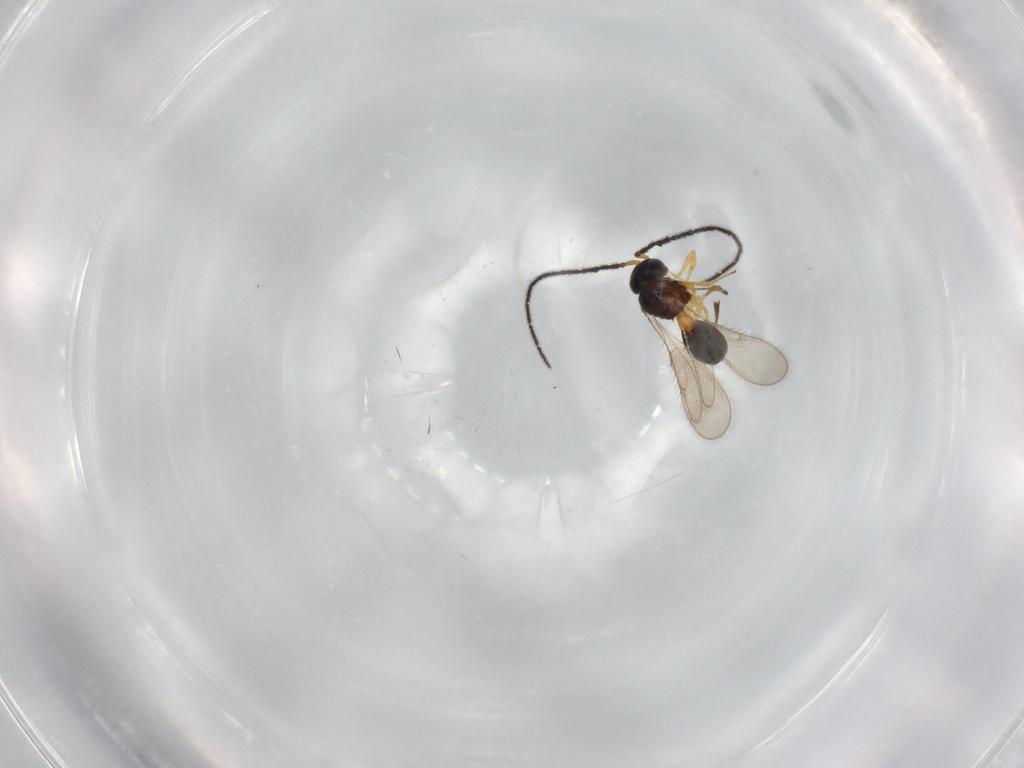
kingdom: Animalia
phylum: Arthropoda
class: Insecta
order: Hymenoptera
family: Scelionidae
